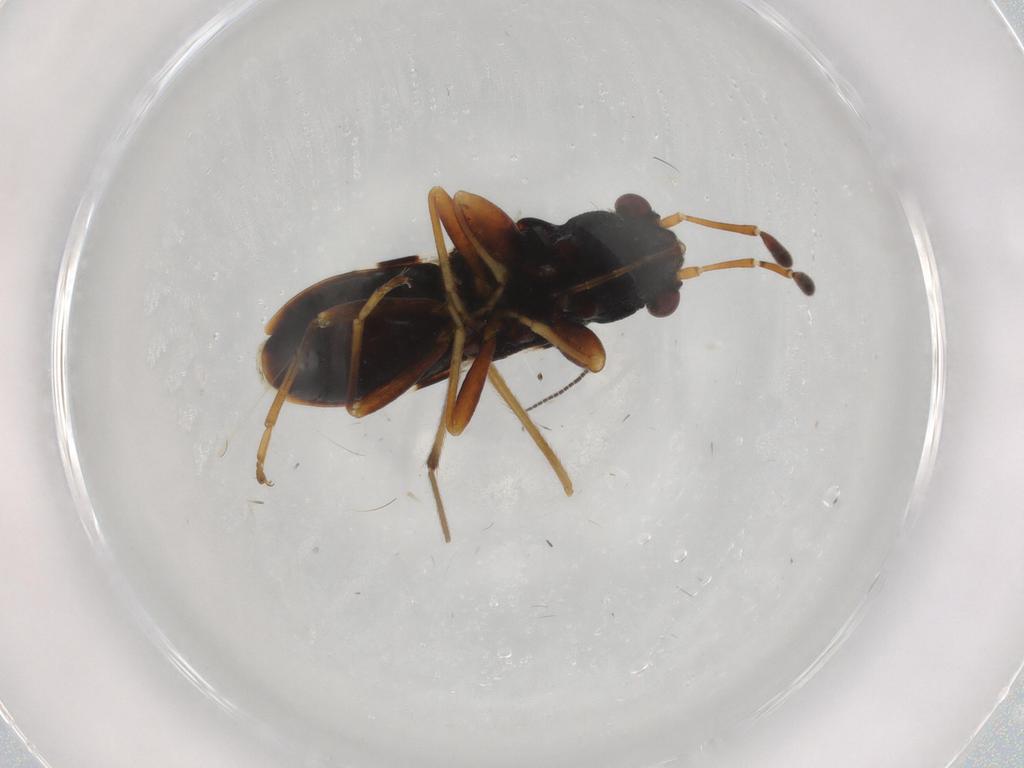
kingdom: Animalia
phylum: Arthropoda
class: Insecta
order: Hemiptera
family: Rhyparochromidae
